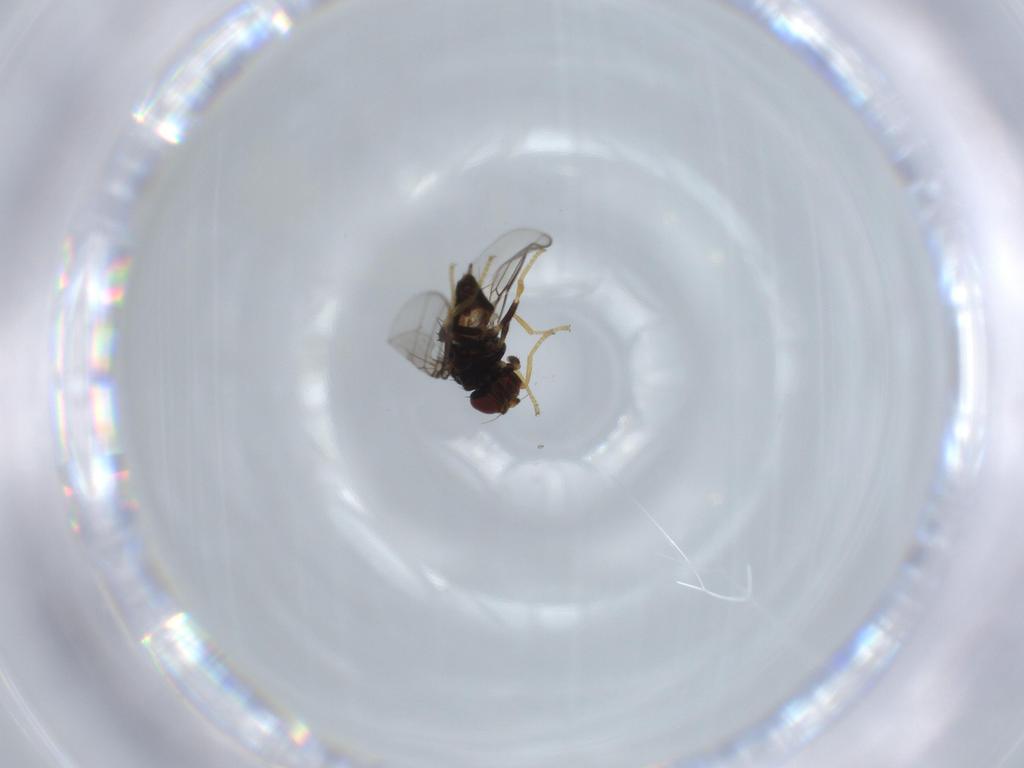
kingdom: Animalia
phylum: Arthropoda
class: Insecta
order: Diptera
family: Chloropidae
